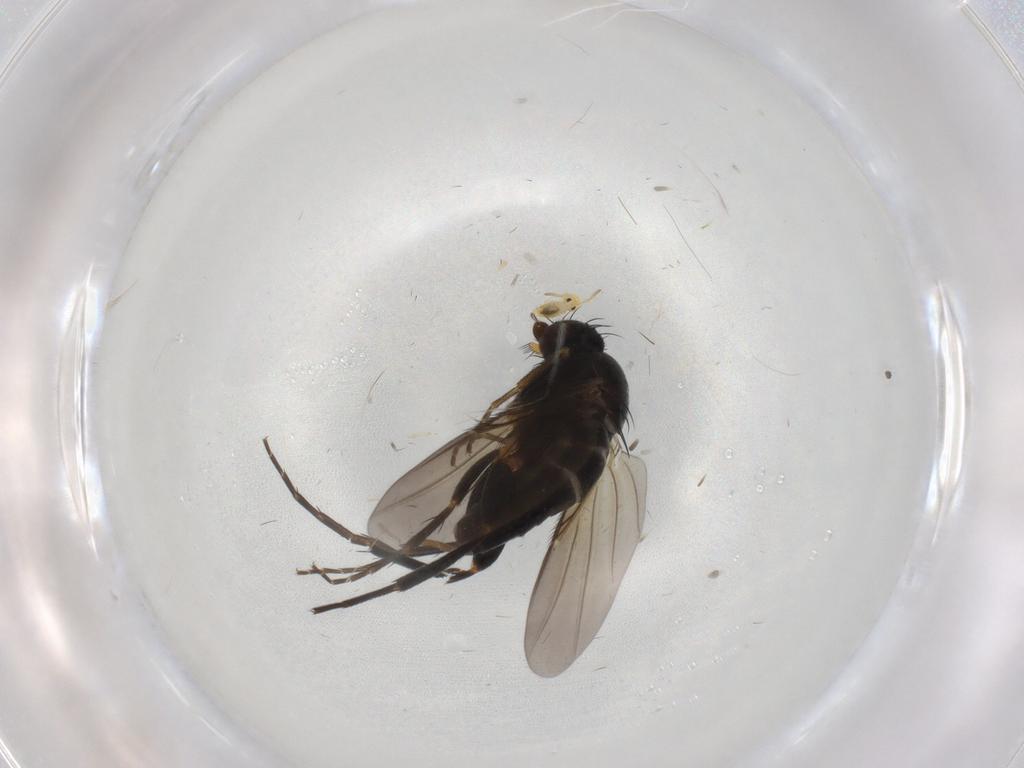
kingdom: Animalia
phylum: Arthropoda
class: Insecta
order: Diptera
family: Phoridae
